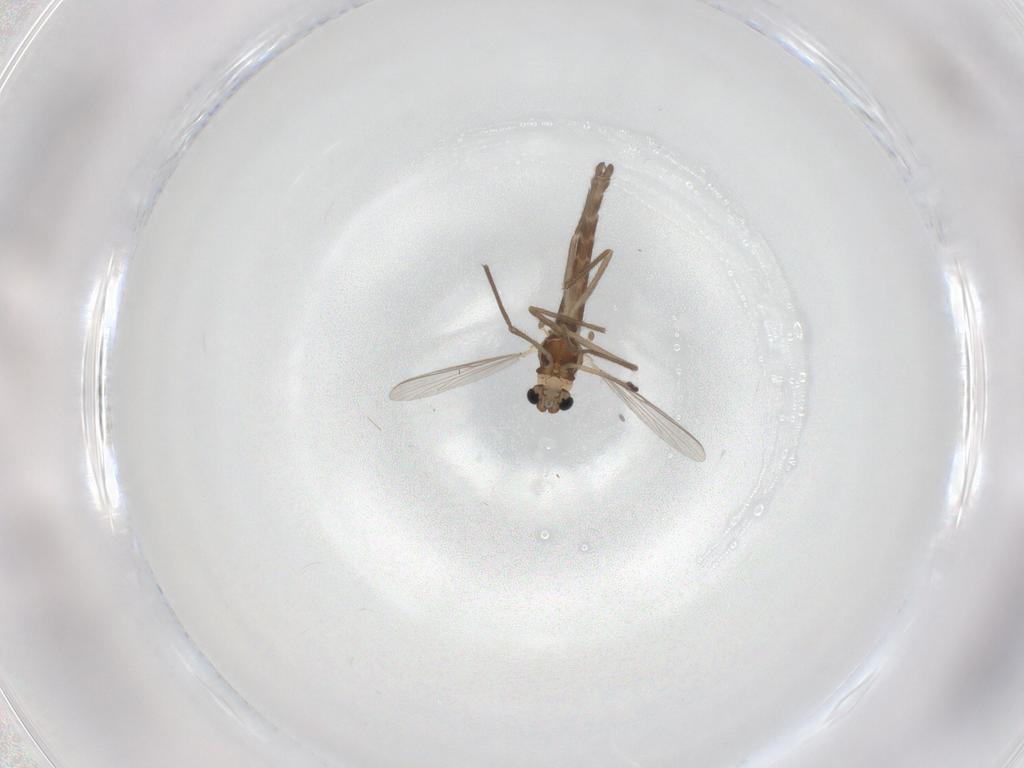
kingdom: Animalia
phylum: Arthropoda
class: Insecta
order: Diptera
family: Chironomidae
